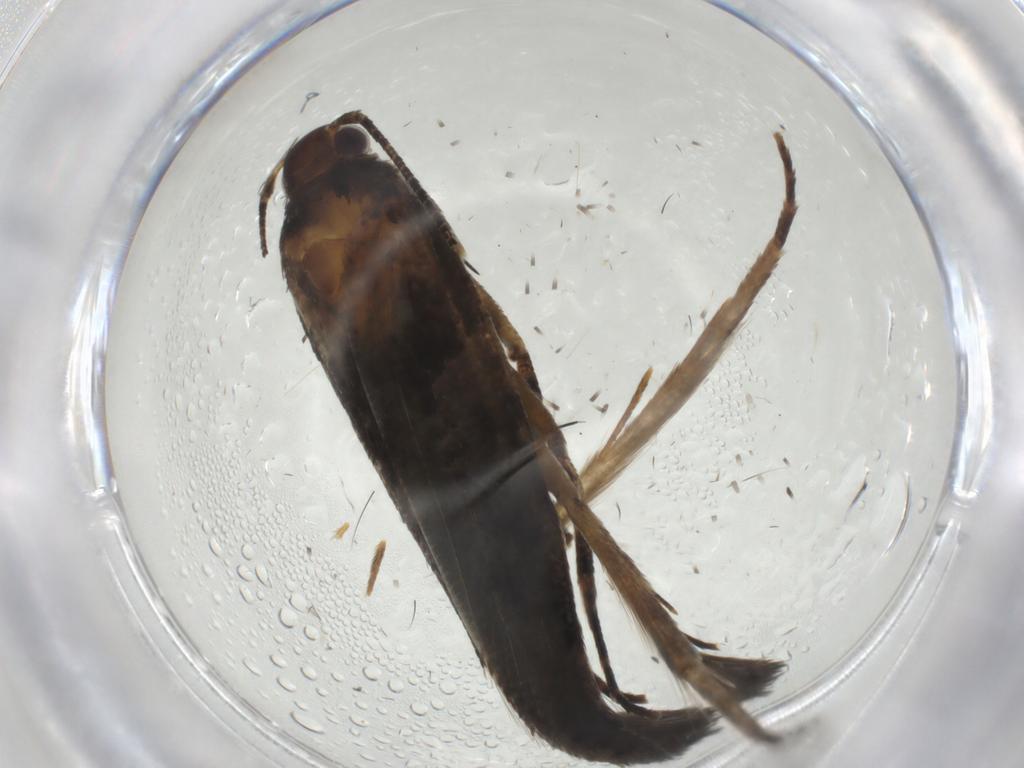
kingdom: Animalia
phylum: Arthropoda
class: Insecta
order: Lepidoptera
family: Gelechiidae
